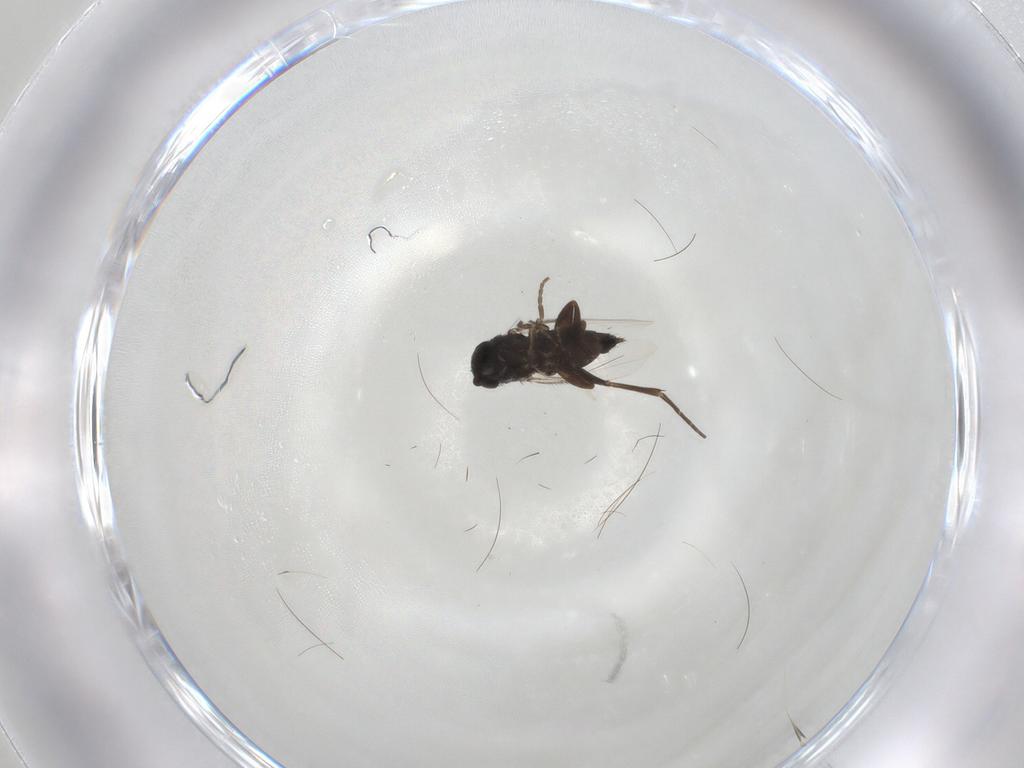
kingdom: Animalia
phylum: Arthropoda
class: Insecta
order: Diptera
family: Phoridae
